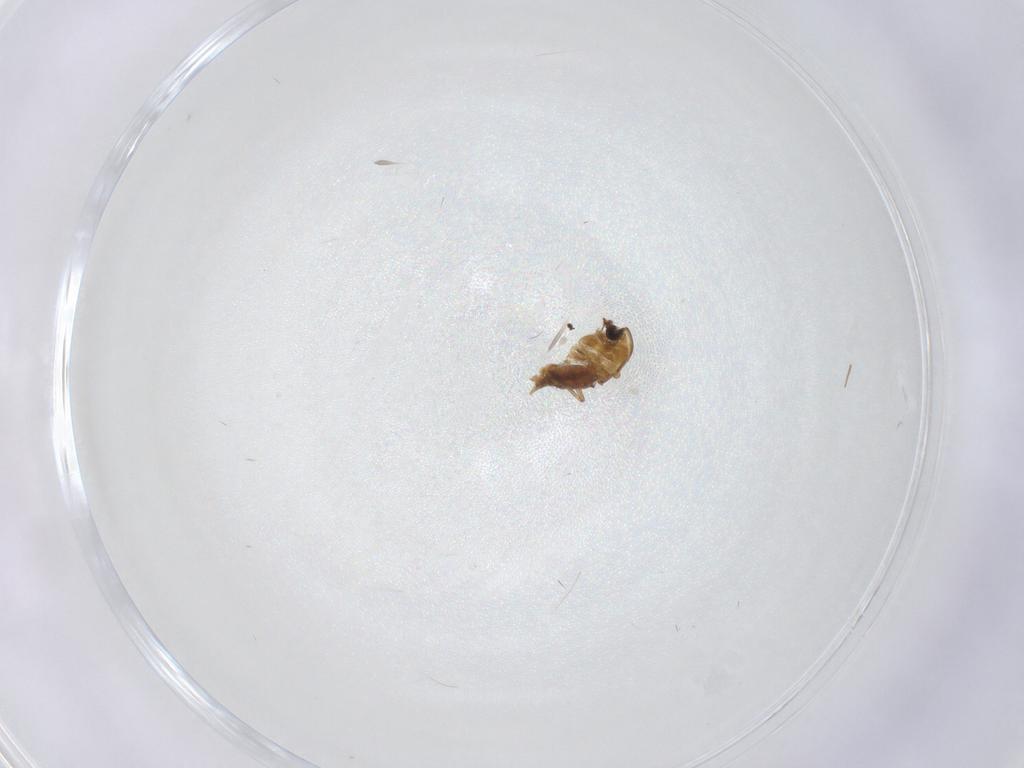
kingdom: Animalia
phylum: Arthropoda
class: Insecta
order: Diptera
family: Chironomidae
